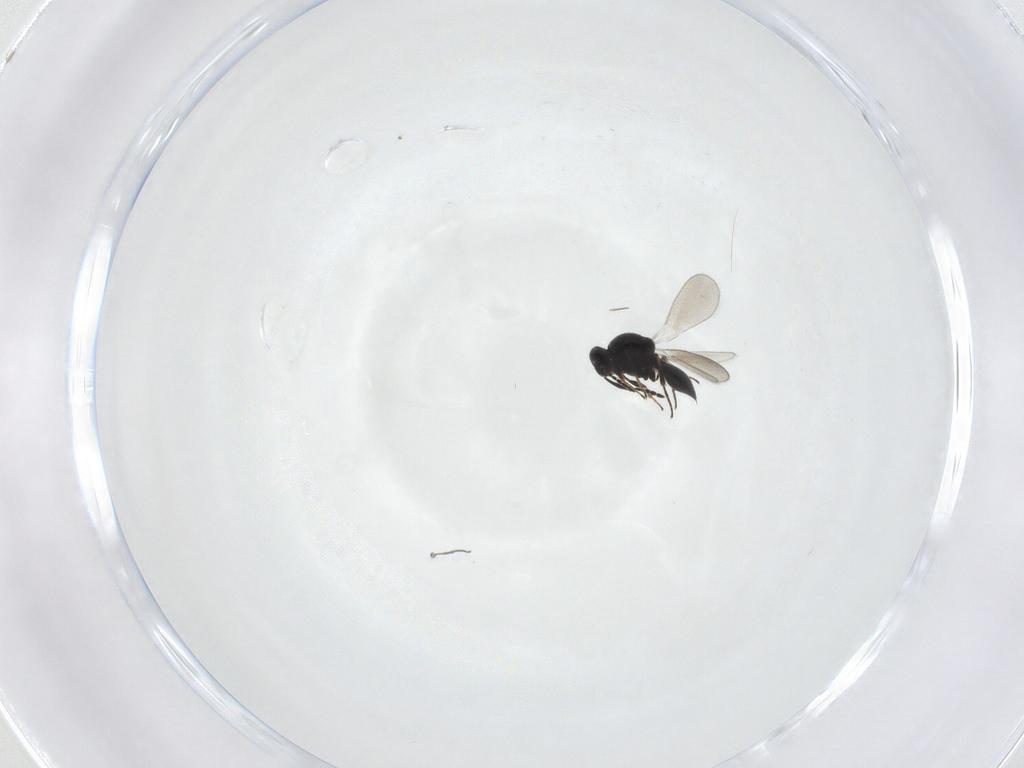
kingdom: Animalia
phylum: Arthropoda
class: Insecta
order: Hymenoptera
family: Platygastridae
